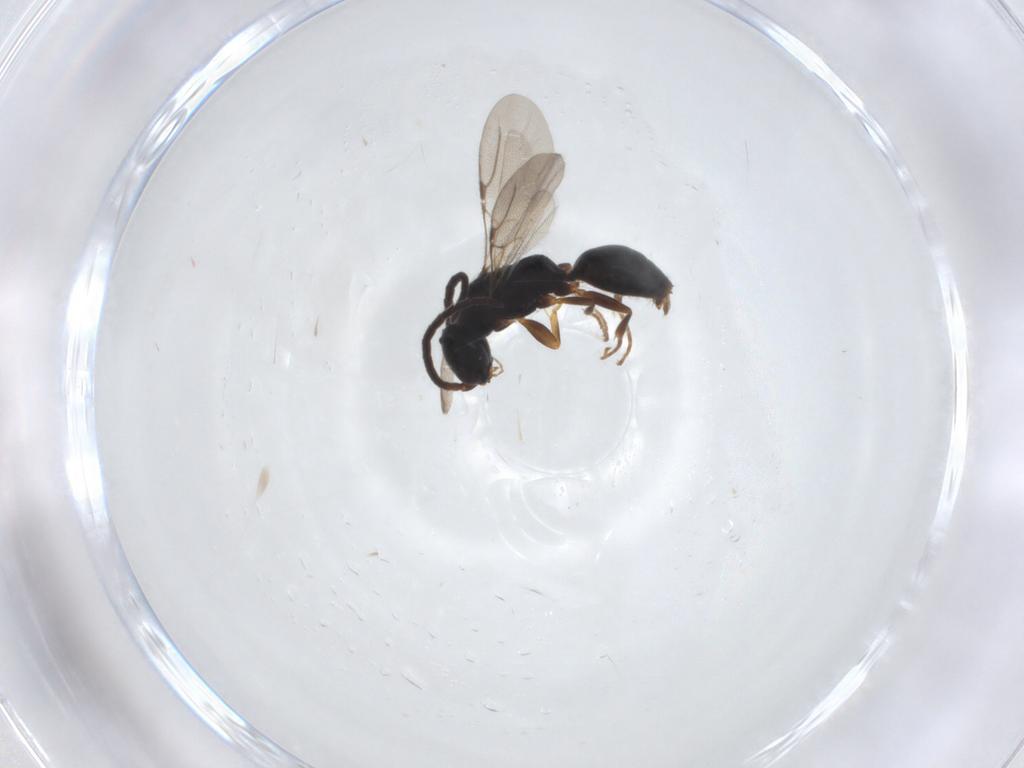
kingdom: Animalia
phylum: Arthropoda
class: Insecta
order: Hymenoptera
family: Bethylidae
